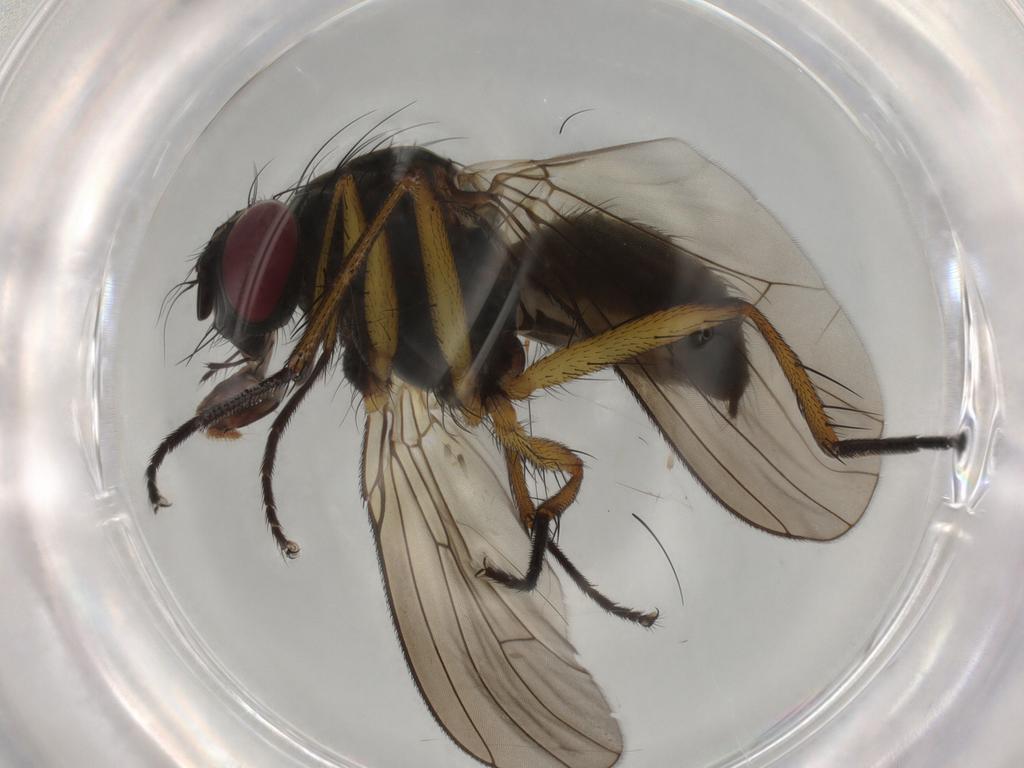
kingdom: Animalia
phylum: Arthropoda
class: Insecta
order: Diptera
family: Muscidae
